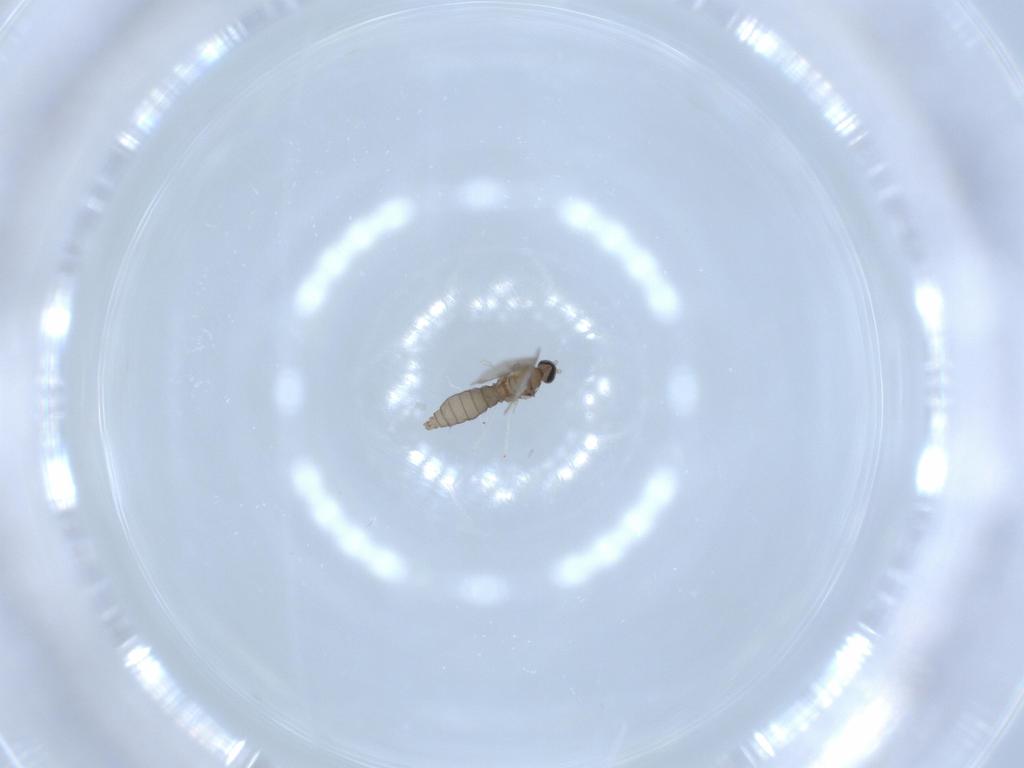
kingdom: Animalia
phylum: Arthropoda
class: Insecta
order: Diptera
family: Cecidomyiidae
